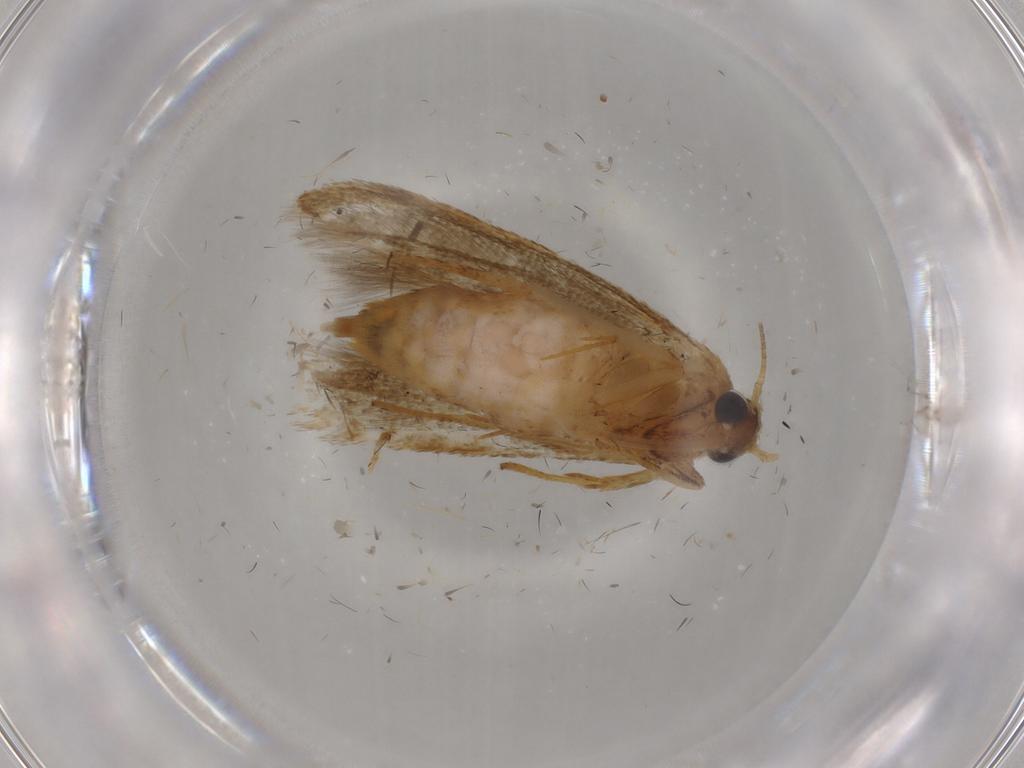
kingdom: Animalia
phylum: Arthropoda
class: Insecta
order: Lepidoptera
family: Blastobasidae
